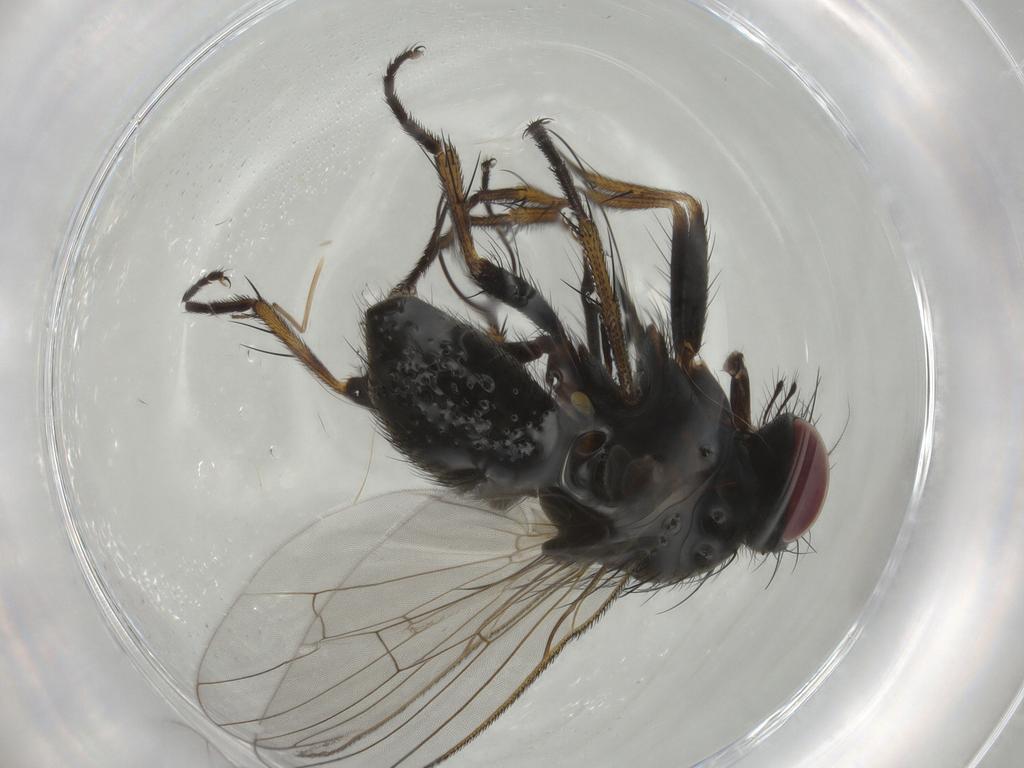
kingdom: Animalia
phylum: Arthropoda
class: Insecta
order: Diptera
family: Muscidae
